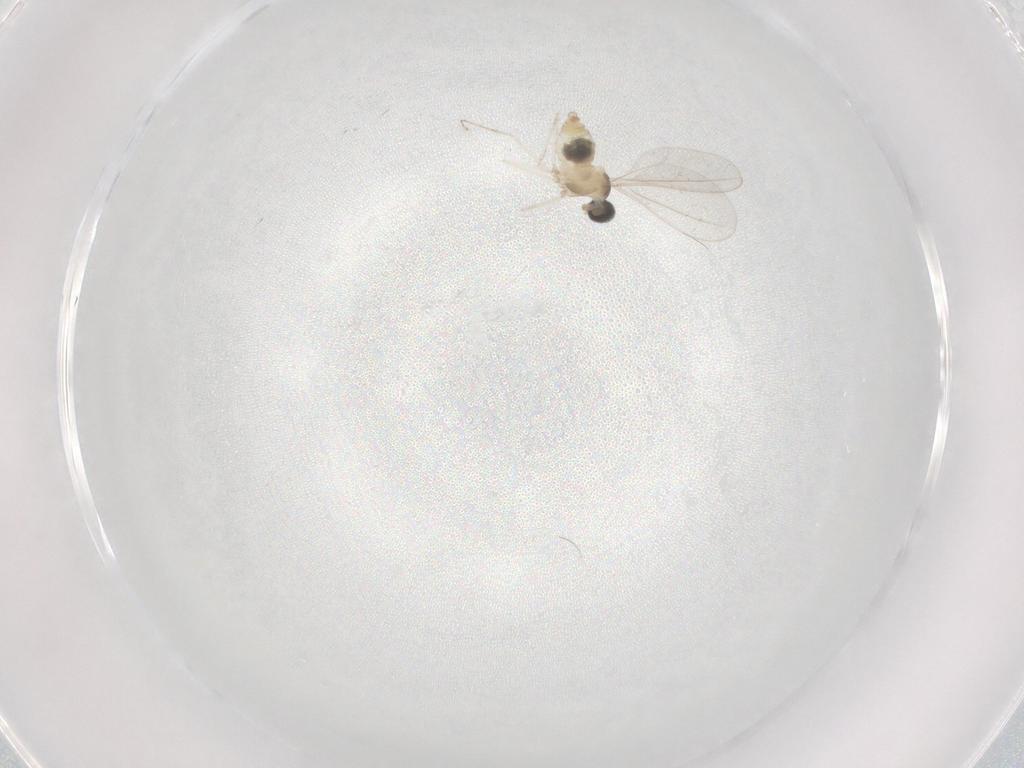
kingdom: Animalia
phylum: Arthropoda
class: Insecta
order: Diptera
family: Cecidomyiidae
